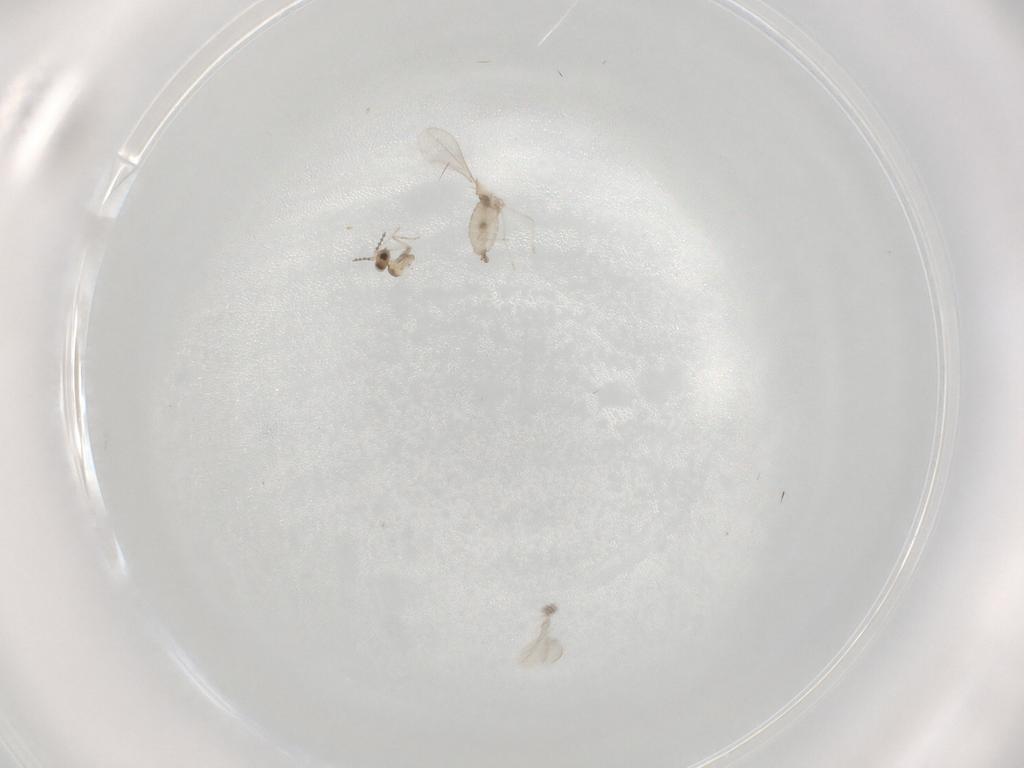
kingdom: Animalia
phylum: Arthropoda
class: Insecta
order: Diptera
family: Cecidomyiidae
